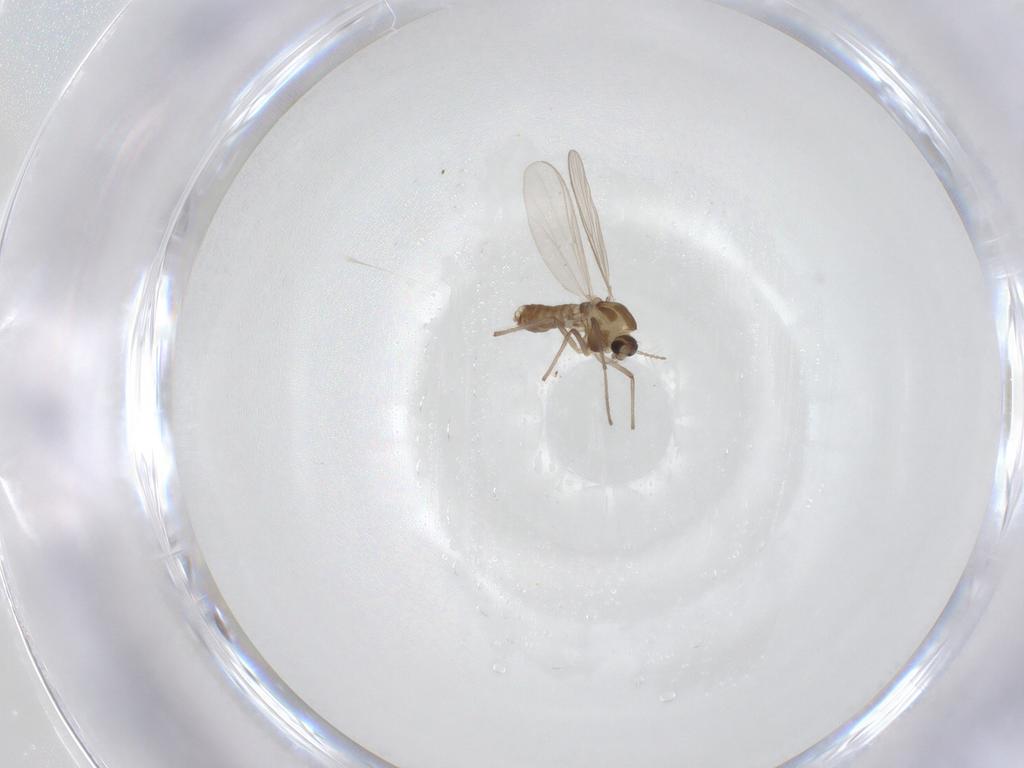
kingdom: Animalia
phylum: Arthropoda
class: Insecta
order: Diptera
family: Chironomidae
